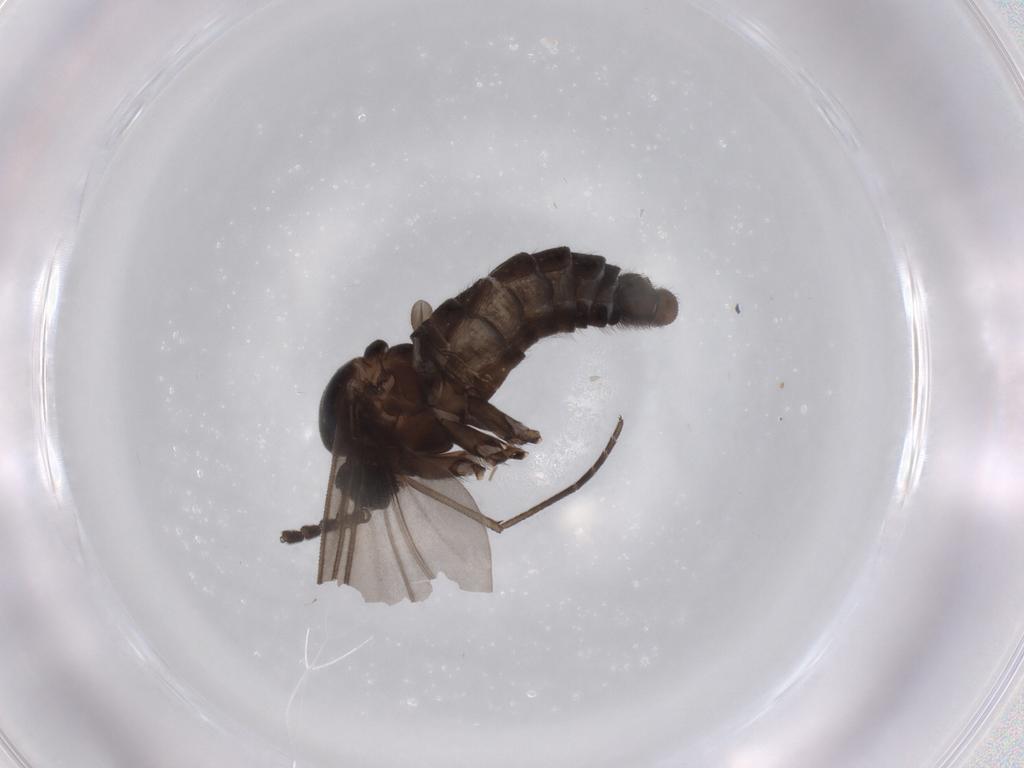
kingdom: Animalia
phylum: Arthropoda
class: Insecta
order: Diptera
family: Sciaridae
